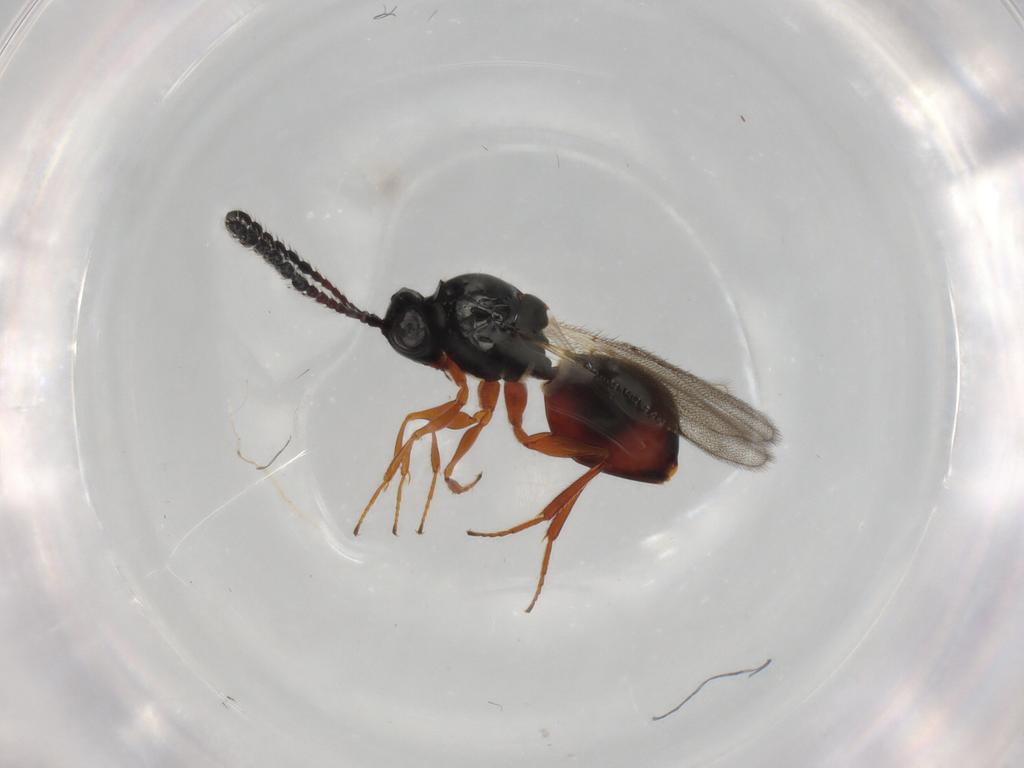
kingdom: Animalia
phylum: Arthropoda
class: Insecta
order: Hymenoptera
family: Figitidae
